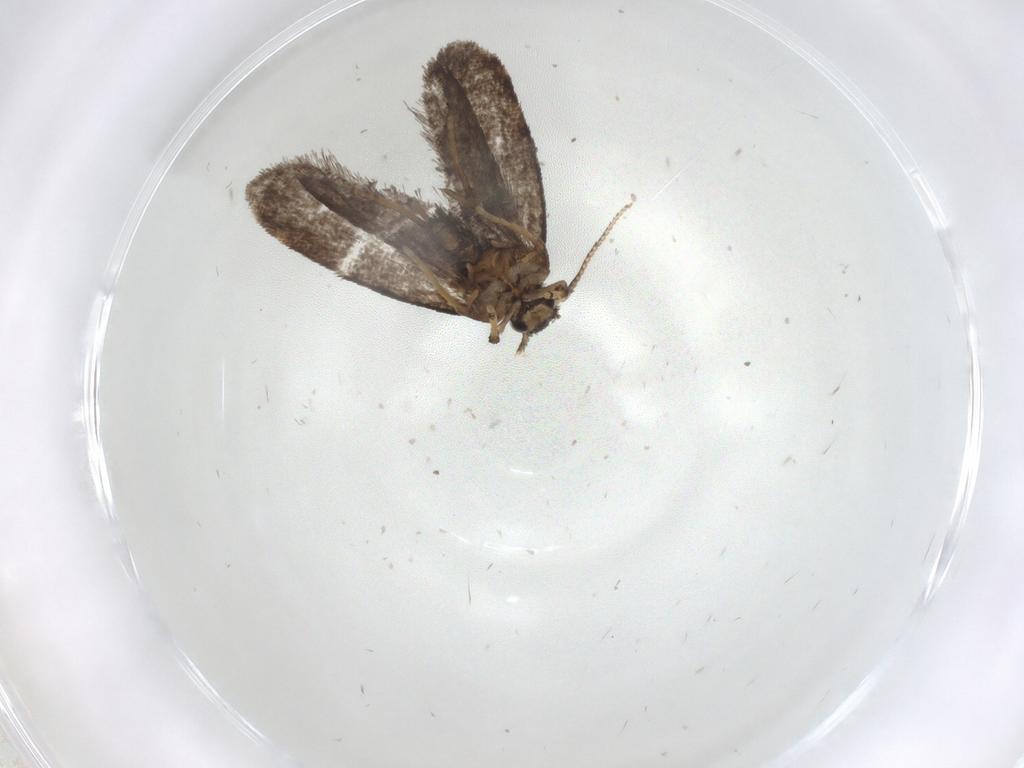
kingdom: Animalia
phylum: Arthropoda
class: Insecta
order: Lepidoptera
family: Psychidae
